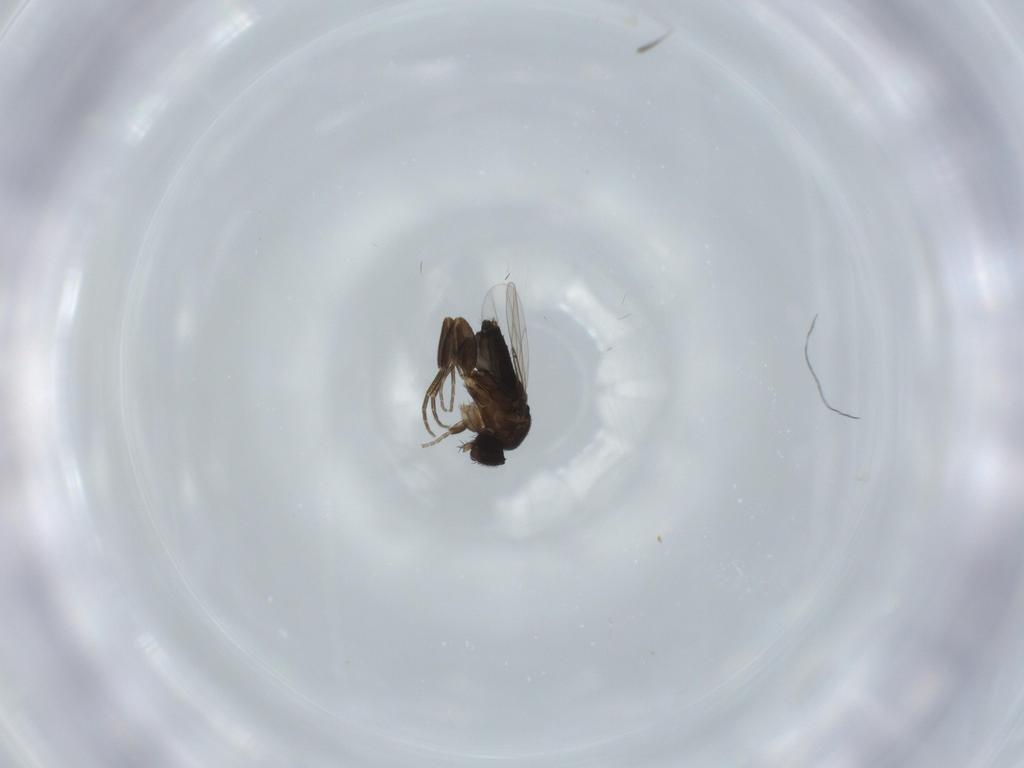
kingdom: Animalia
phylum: Arthropoda
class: Insecta
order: Diptera
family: Phoridae
